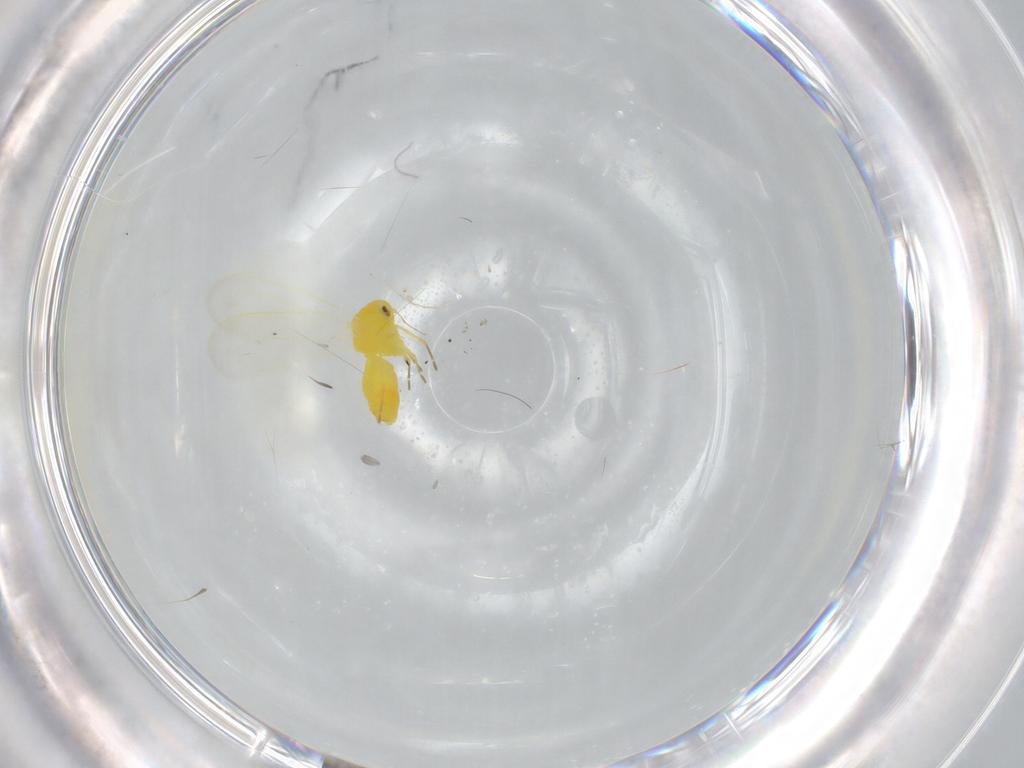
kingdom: Animalia
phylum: Arthropoda
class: Insecta
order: Hemiptera
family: Aleyrodidae
